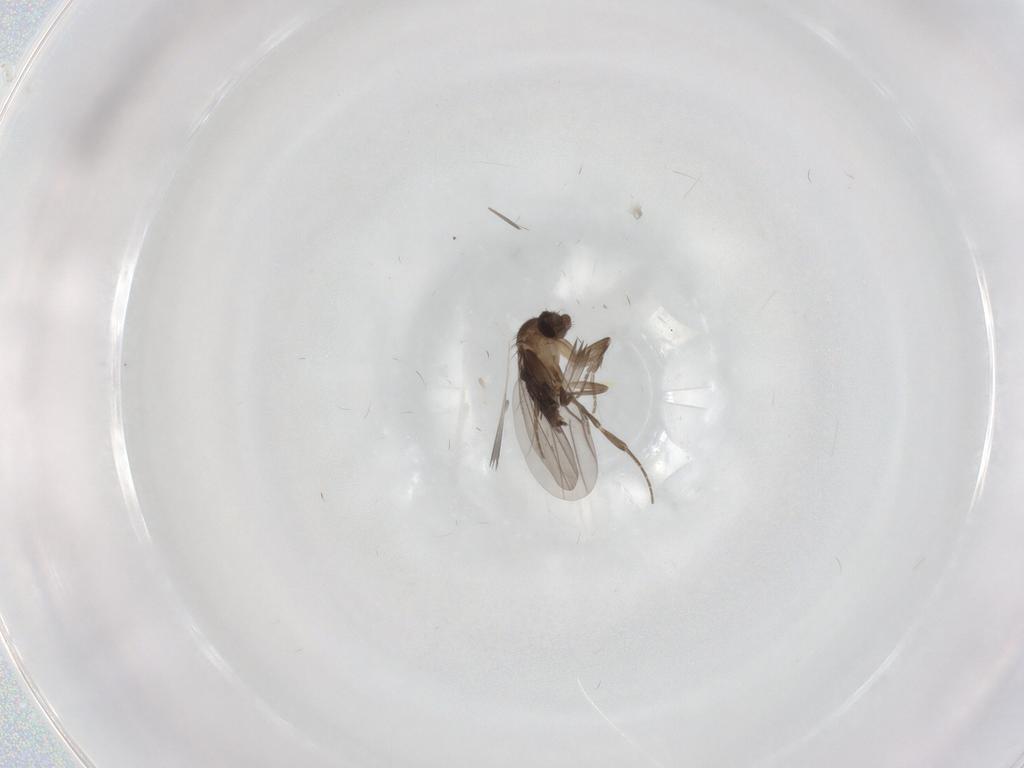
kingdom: Animalia
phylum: Arthropoda
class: Insecta
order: Diptera
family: Phoridae
